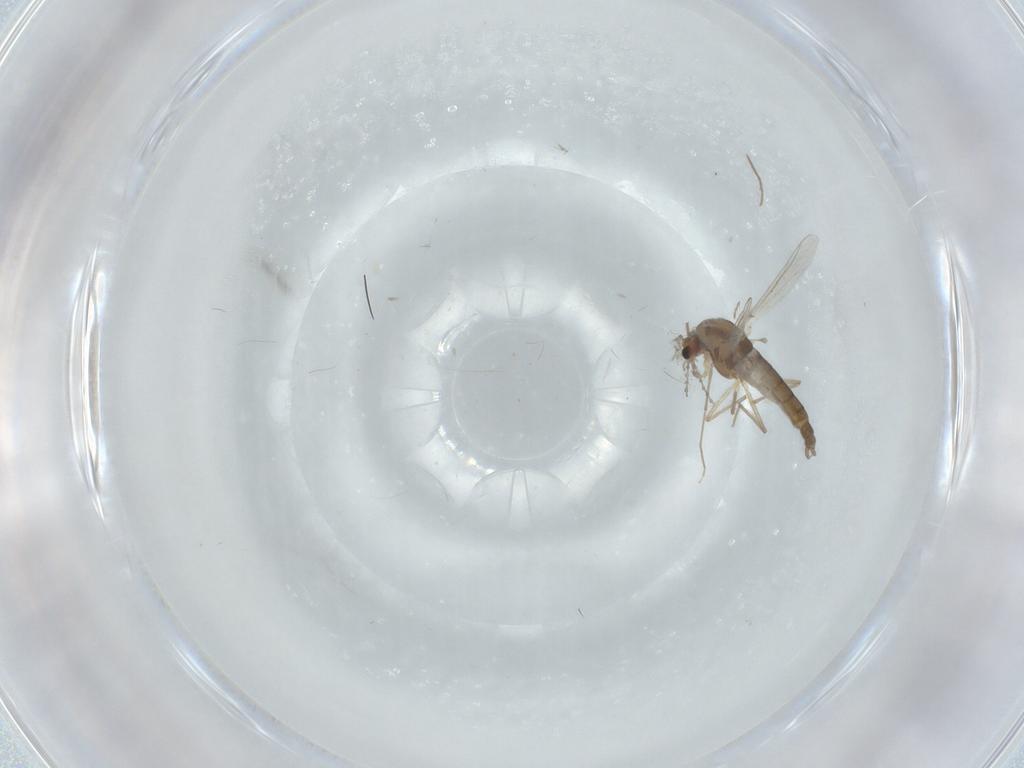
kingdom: Animalia
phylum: Arthropoda
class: Insecta
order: Diptera
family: Chironomidae
